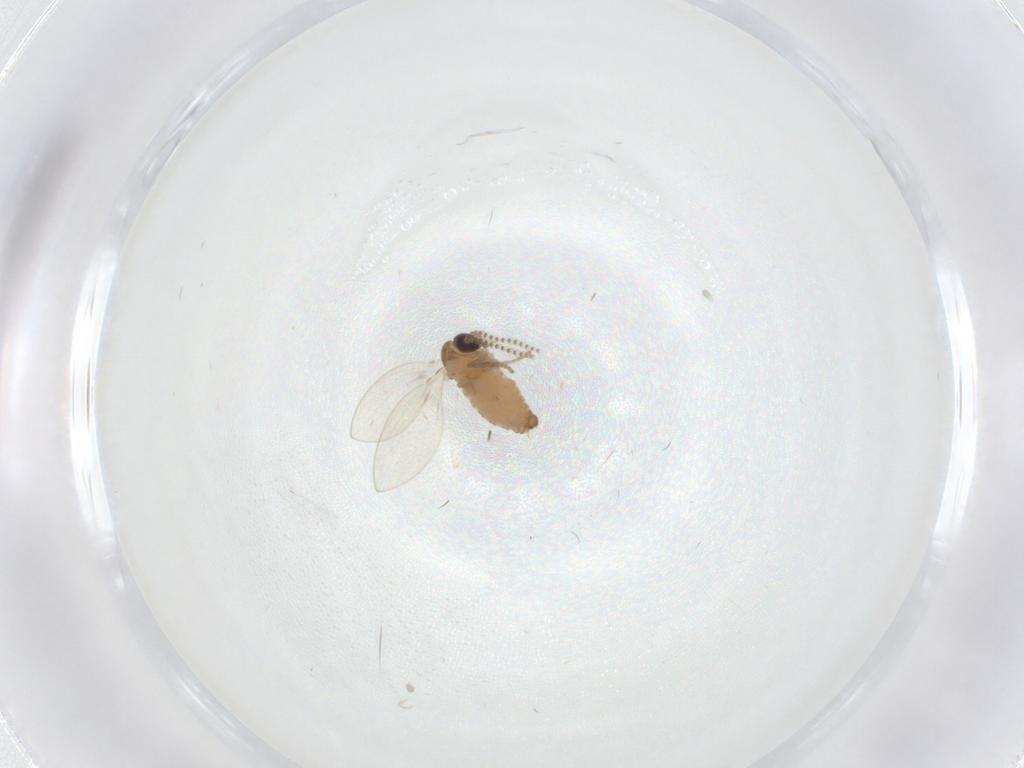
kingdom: Animalia
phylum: Arthropoda
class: Insecta
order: Diptera
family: Psychodidae
